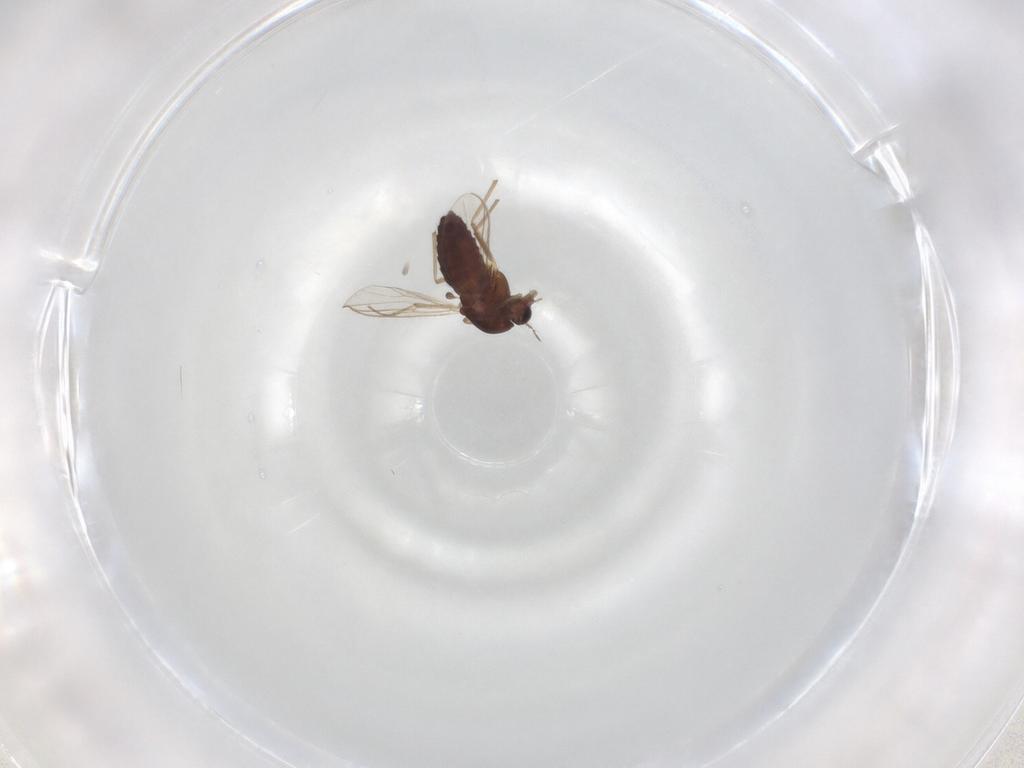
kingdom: Animalia
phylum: Arthropoda
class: Insecta
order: Diptera
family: Chironomidae
